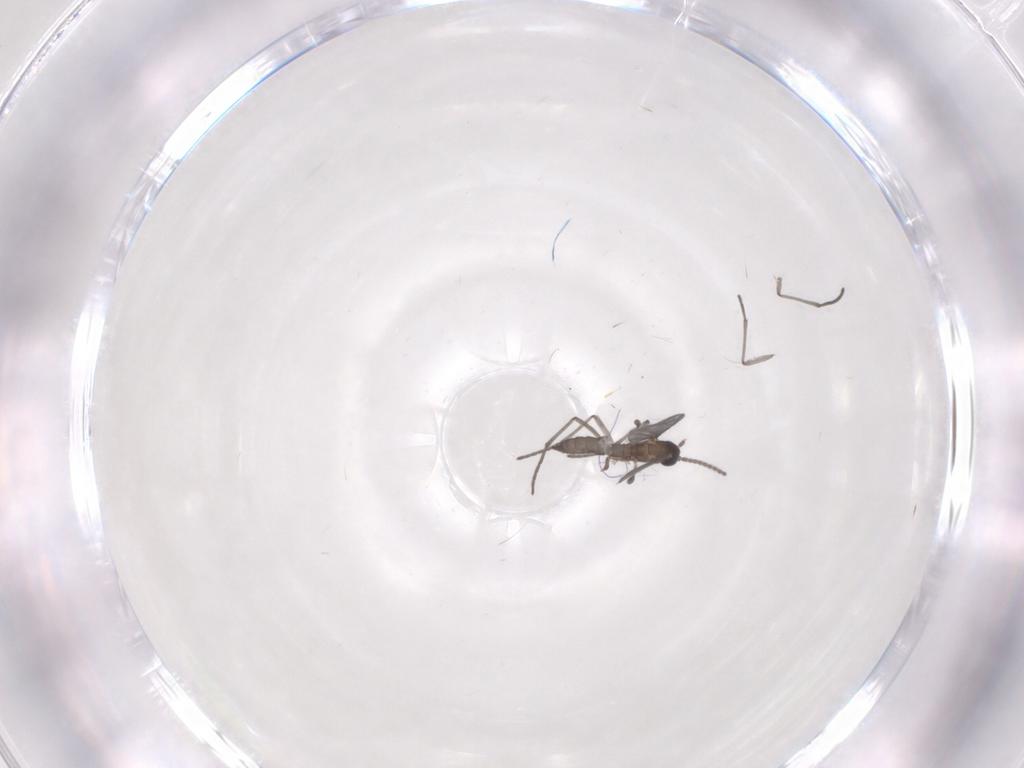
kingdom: Animalia
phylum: Arthropoda
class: Insecta
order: Diptera
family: Sciaridae
